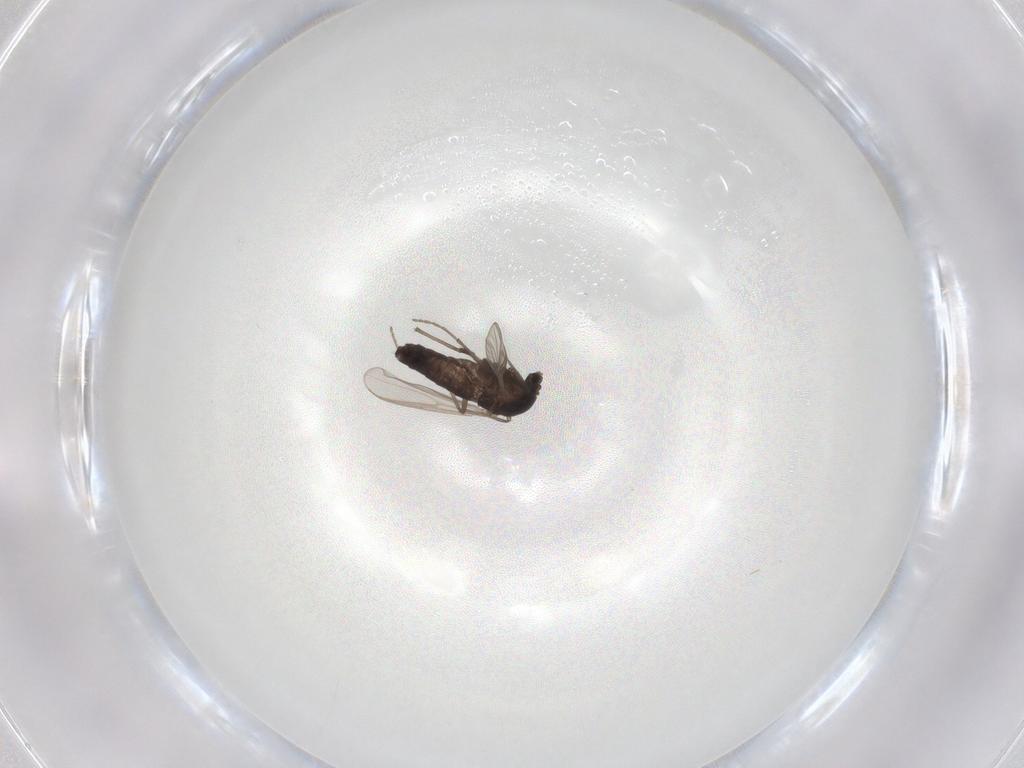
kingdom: Animalia
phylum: Arthropoda
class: Insecta
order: Diptera
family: Chironomidae
